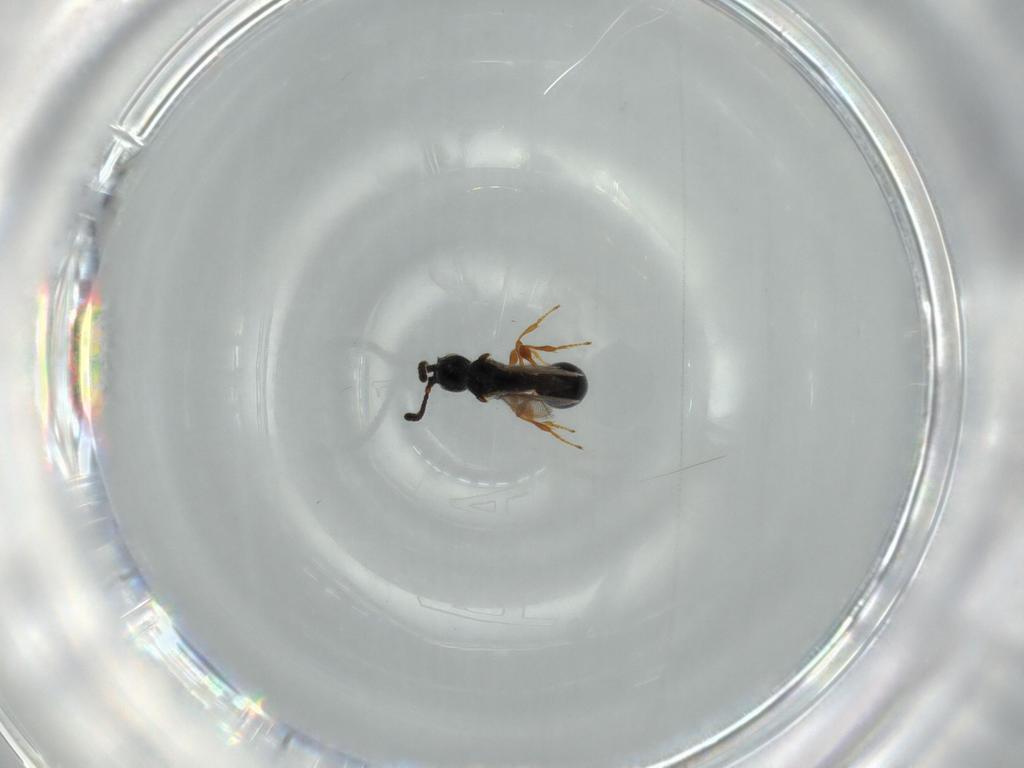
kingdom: Animalia
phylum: Arthropoda
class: Insecta
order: Hymenoptera
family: Diapriidae
